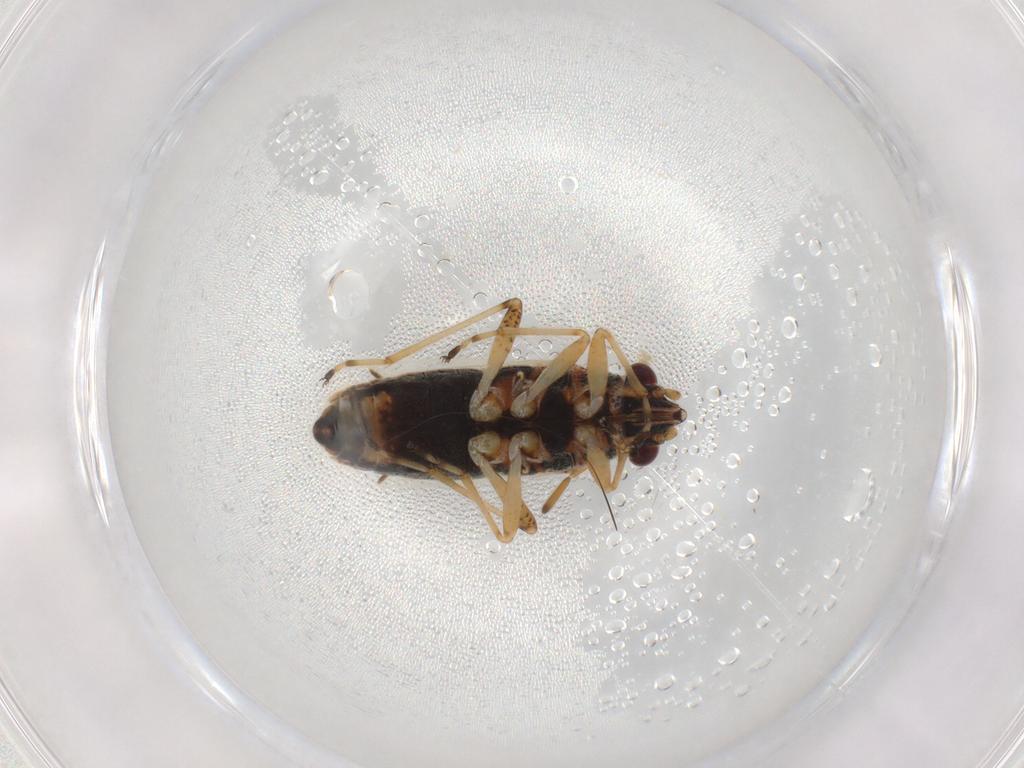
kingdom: Animalia
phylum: Arthropoda
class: Insecta
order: Hemiptera
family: Lygaeidae
